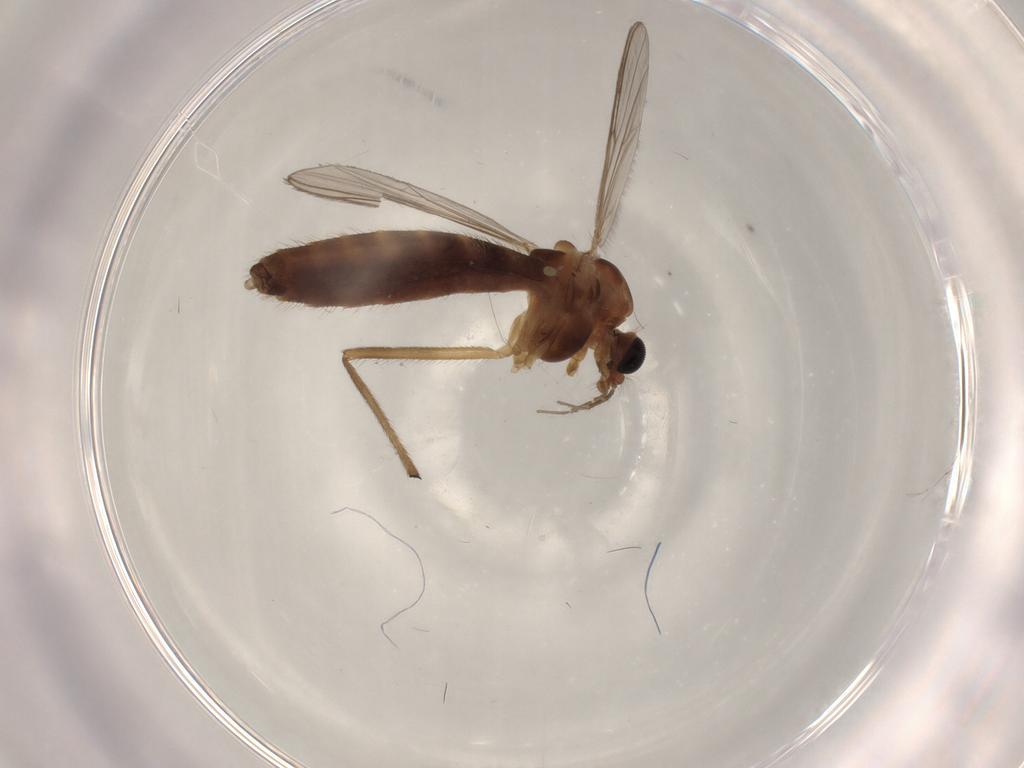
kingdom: Animalia
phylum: Arthropoda
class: Insecta
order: Diptera
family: Chironomidae
